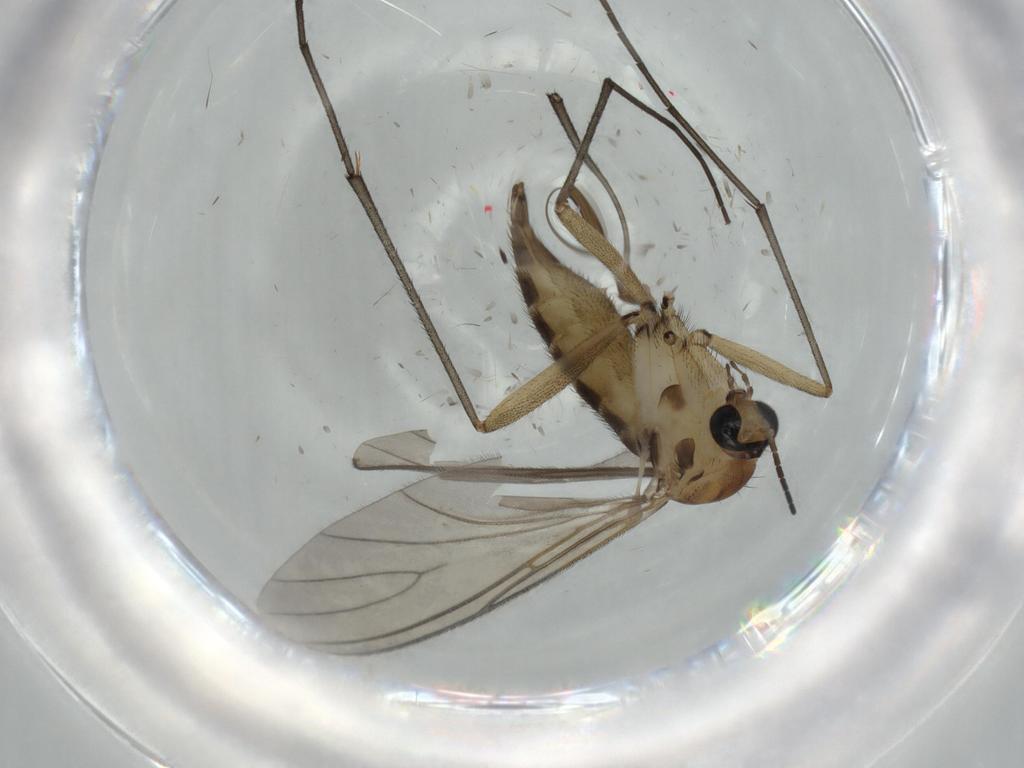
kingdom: Animalia
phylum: Arthropoda
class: Insecta
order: Diptera
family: Sciaridae
